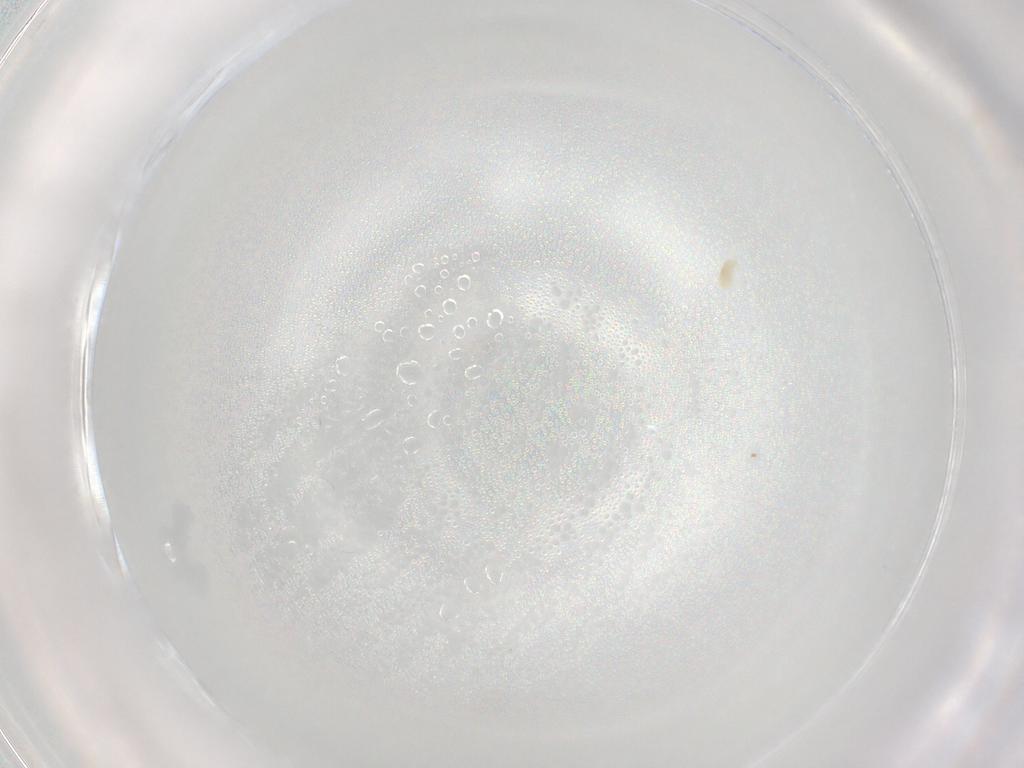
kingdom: Animalia
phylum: Arthropoda
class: Arachnida
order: Trombidiformes
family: Eupodidae
